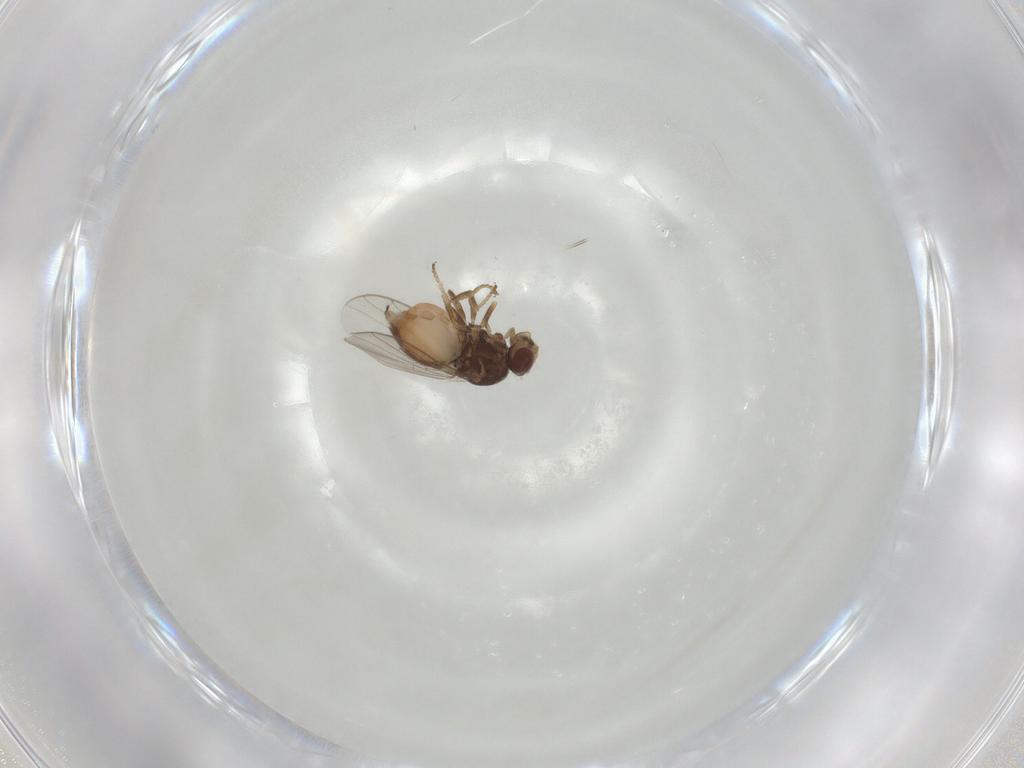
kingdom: Animalia
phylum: Arthropoda
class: Insecta
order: Diptera
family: Chloropidae
